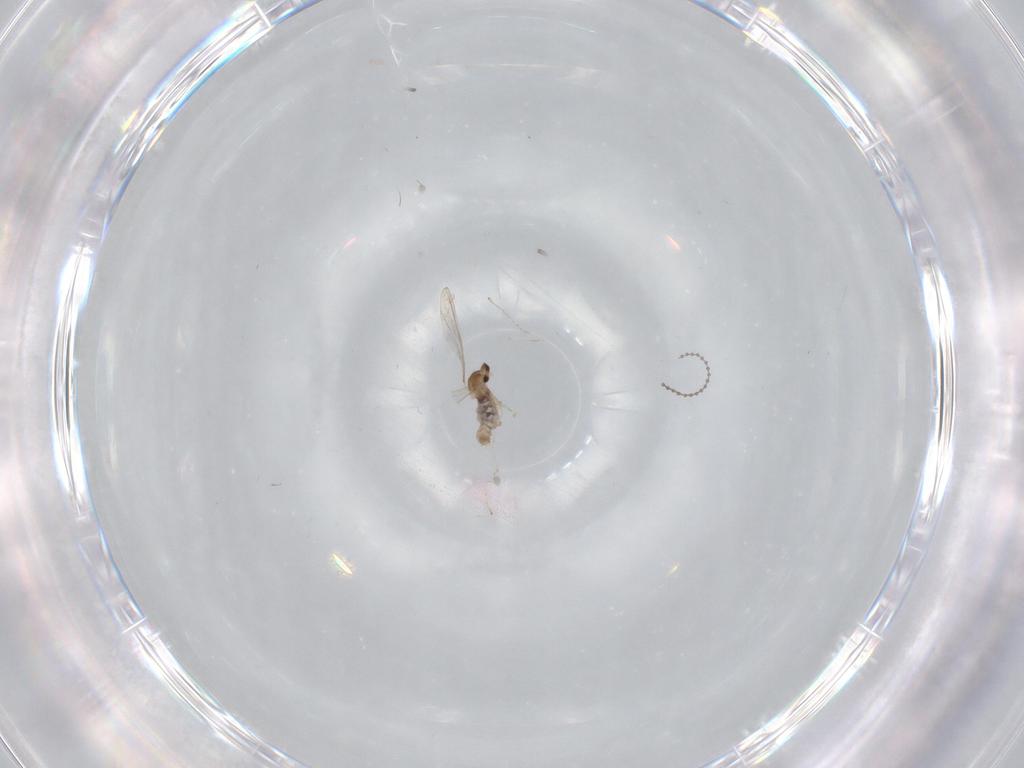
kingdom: Animalia
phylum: Arthropoda
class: Insecta
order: Diptera
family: Cecidomyiidae
